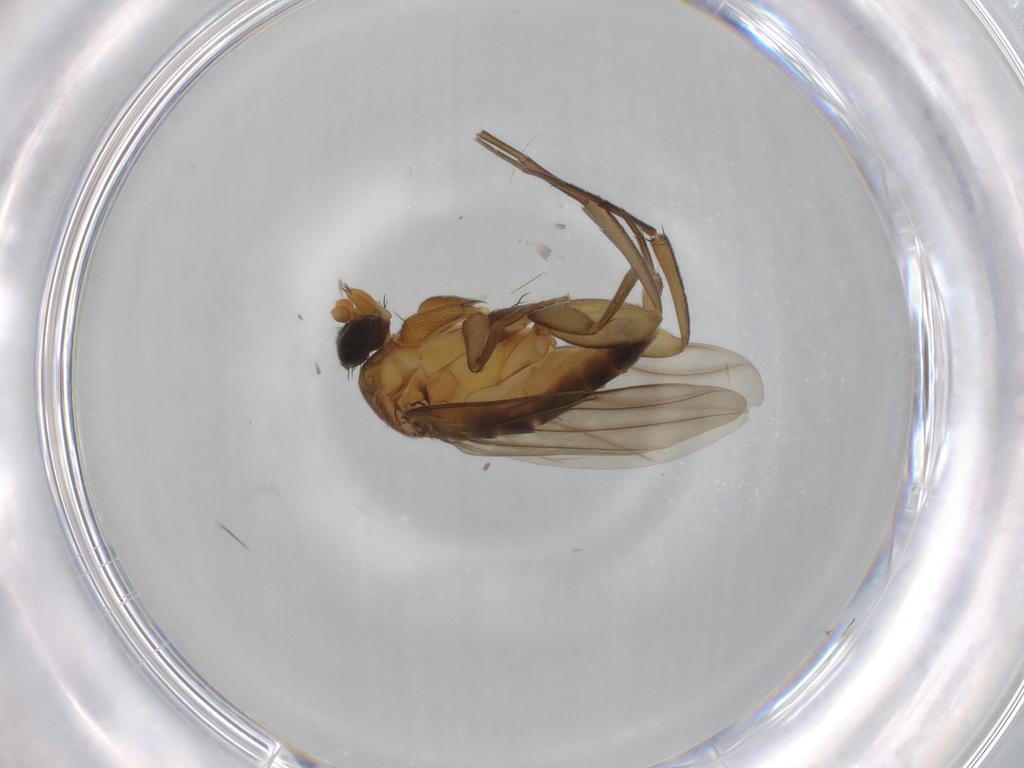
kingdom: Animalia
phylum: Arthropoda
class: Insecta
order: Diptera
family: Phoridae
